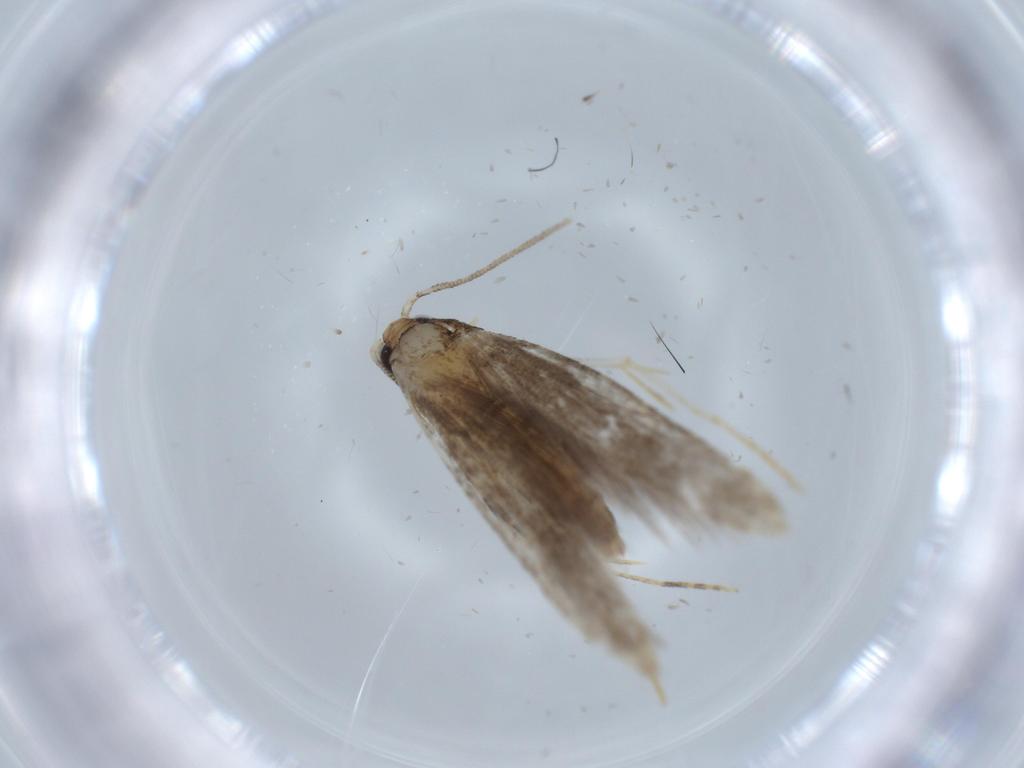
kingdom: Animalia
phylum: Arthropoda
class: Insecta
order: Lepidoptera
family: Tineidae
